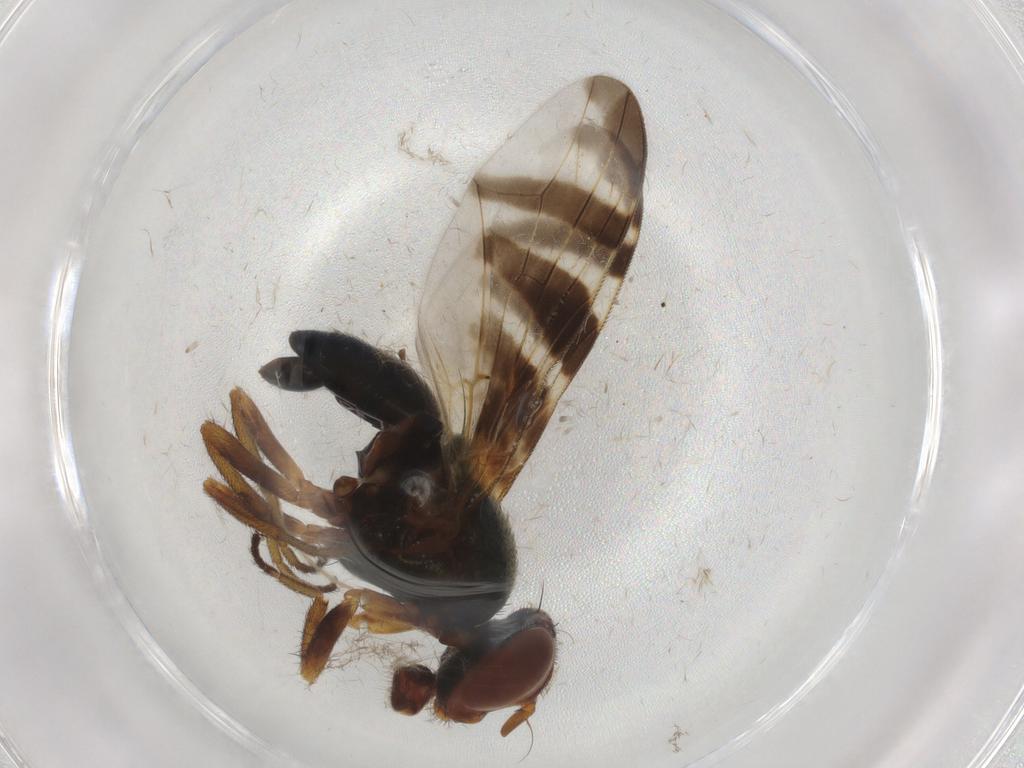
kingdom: Animalia
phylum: Arthropoda
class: Insecta
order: Diptera
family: Platystomatidae
